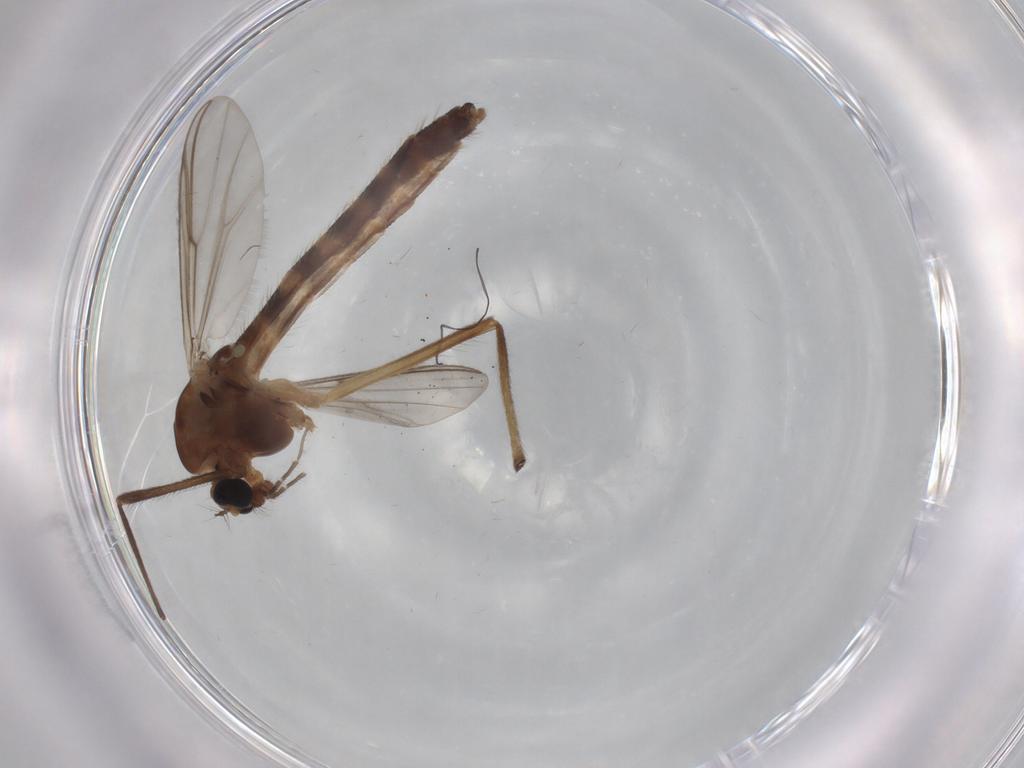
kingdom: Animalia
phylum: Arthropoda
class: Insecta
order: Diptera
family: Chironomidae
